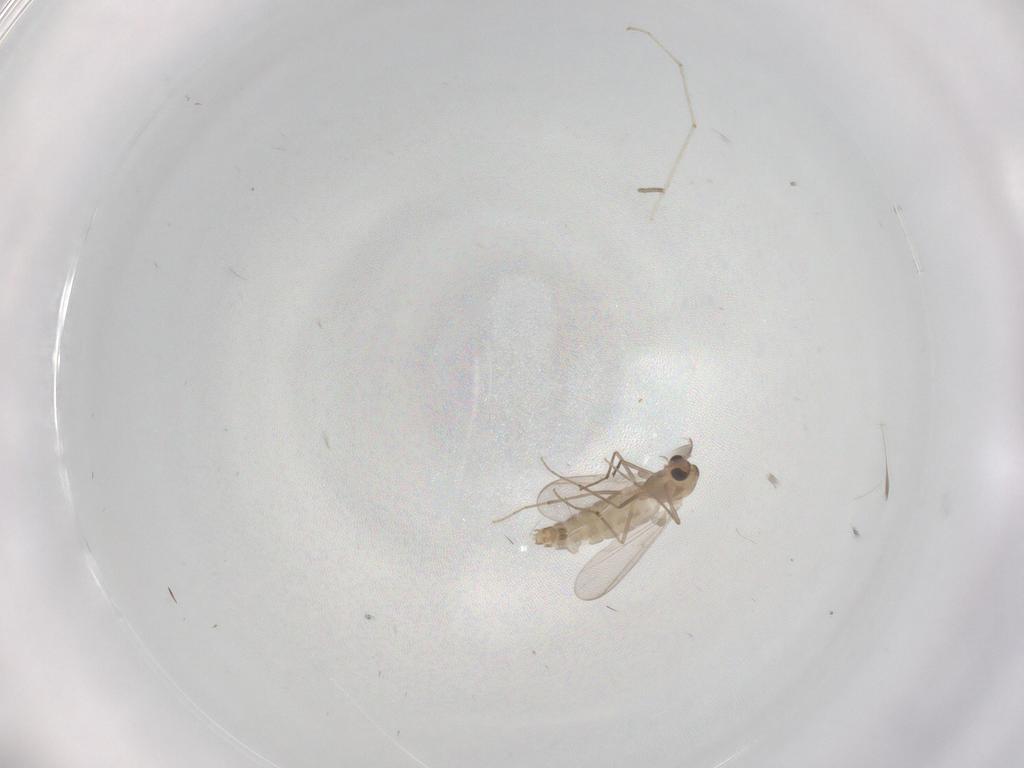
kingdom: Animalia
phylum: Arthropoda
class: Insecta
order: Diptera
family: Chironomidae
